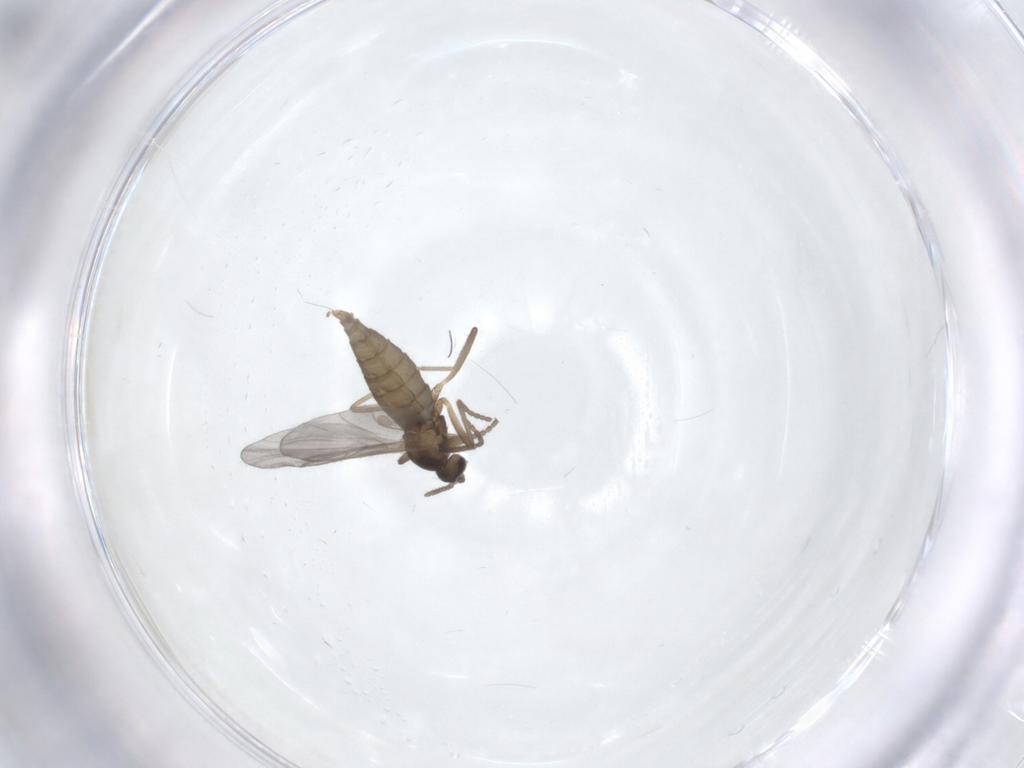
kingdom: Animalia
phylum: Arthropoda
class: Insecta
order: Diptera
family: Cecidomyiidae
